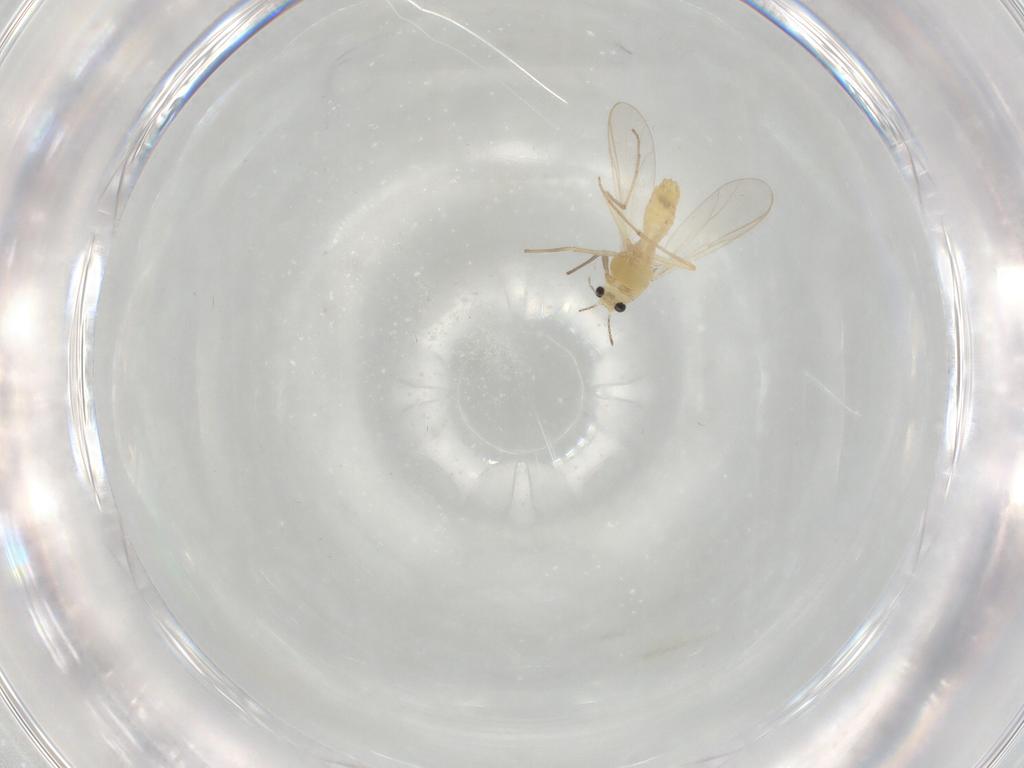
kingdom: Animalia
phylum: Arthropoda
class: Insecta
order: Diptera
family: Chironomidae
